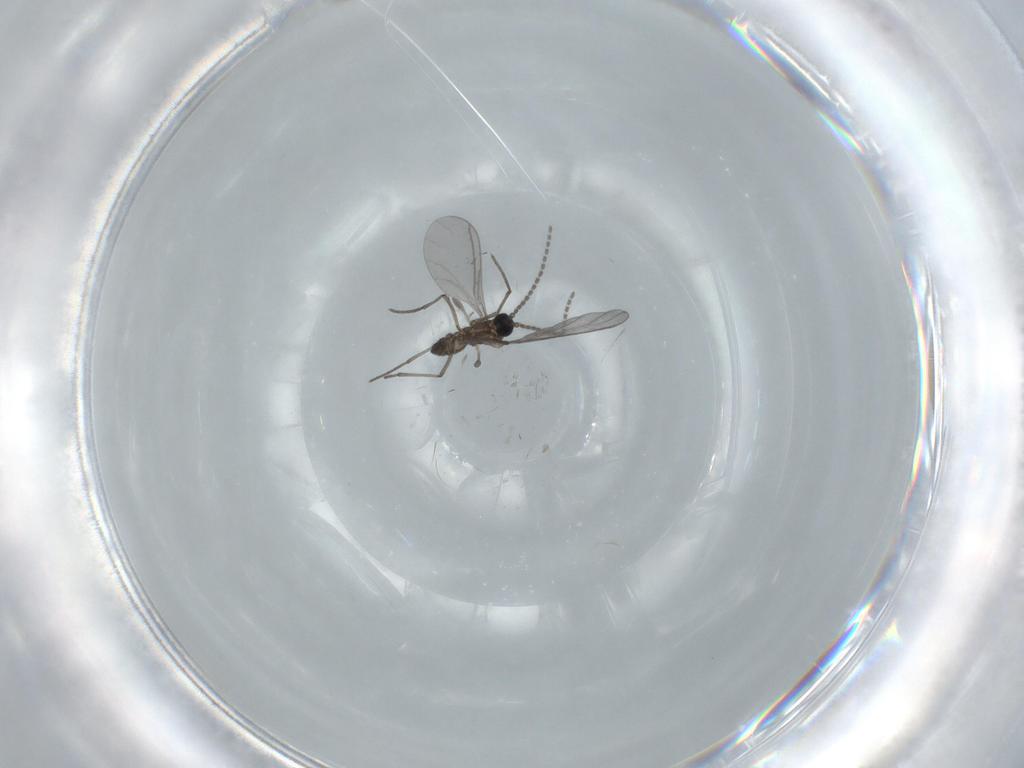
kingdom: Animalia
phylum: Arthropoda
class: Insecta
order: Diptera
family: Sciaridae
